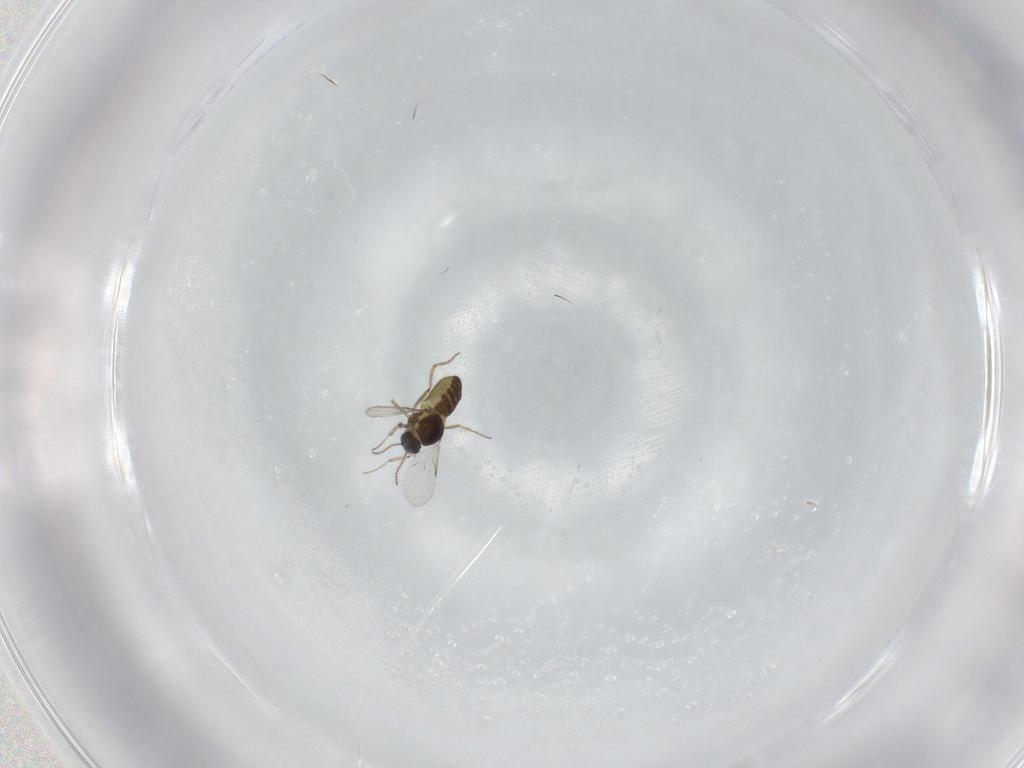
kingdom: Animalia
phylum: Arthropoda
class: Insecta
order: Diptera
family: Ceratopogonidae
